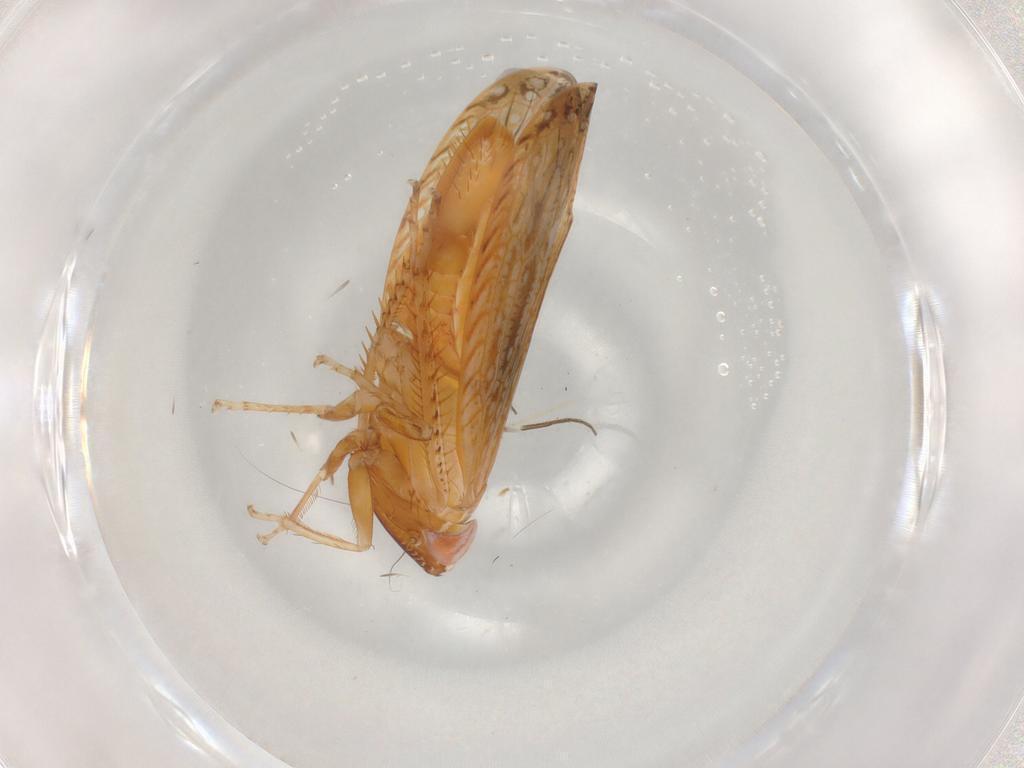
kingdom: Animalia
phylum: Arthropoda
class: Insecta
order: Hemiptera
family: Cicadellidae
